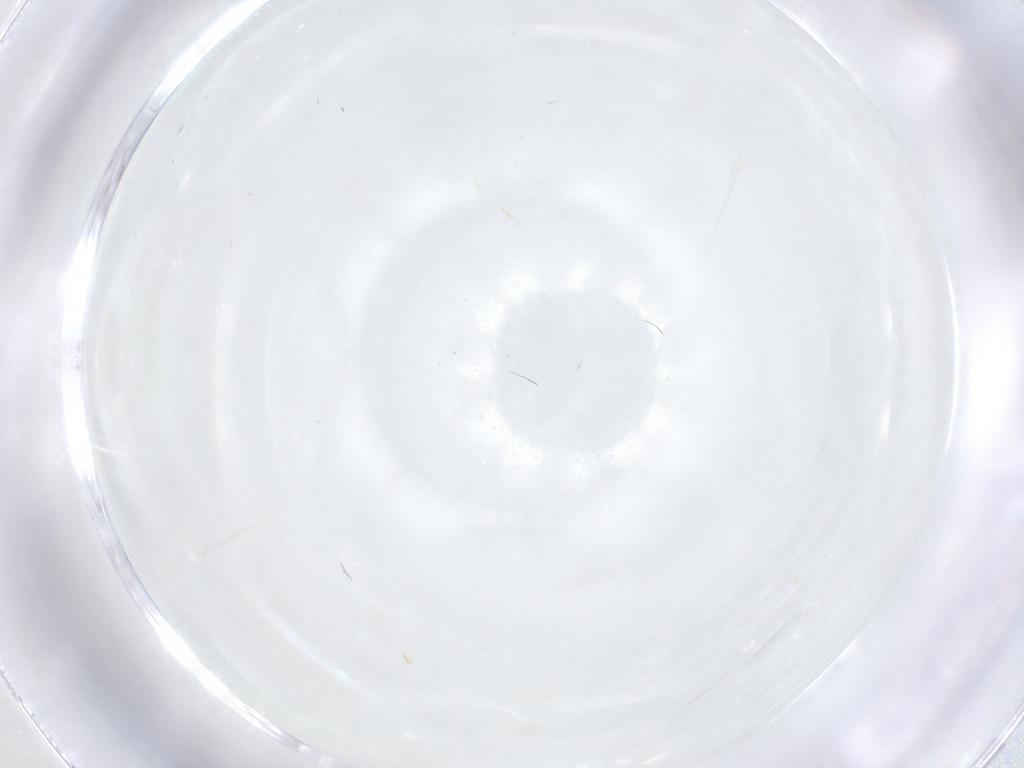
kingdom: Animalia
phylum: Arthropoda
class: Insecta
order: Diptera
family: Phoridae
